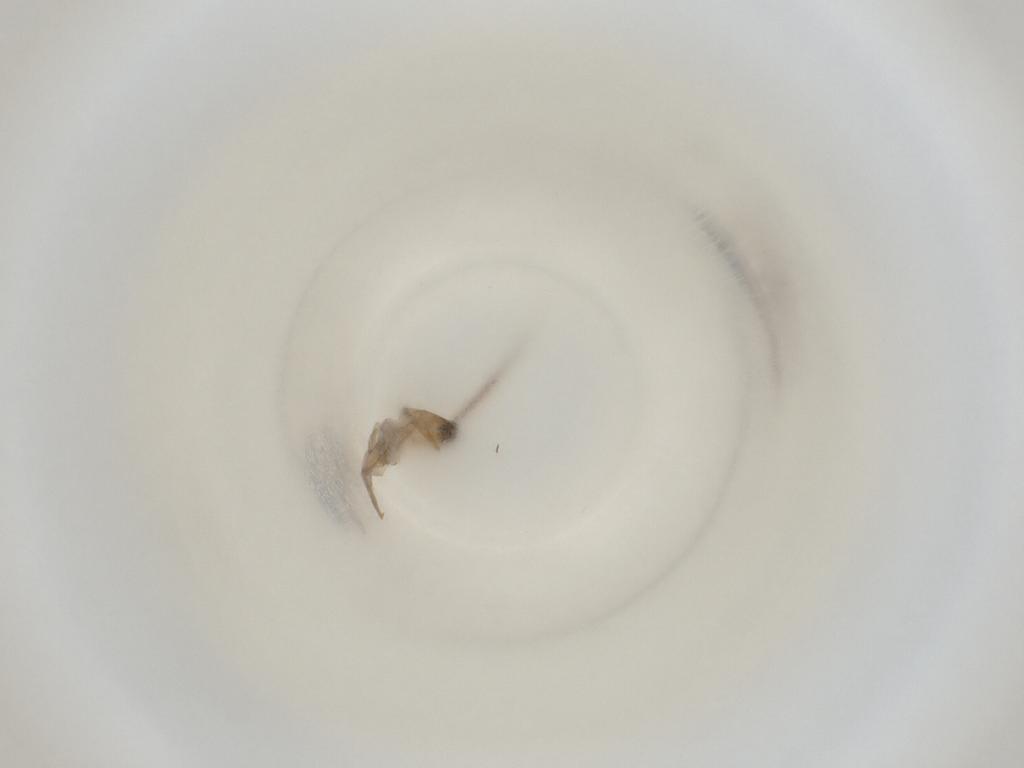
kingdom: Animalia
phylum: Arthropoda
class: Insecta
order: Diptera
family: Cecidomyiidae
